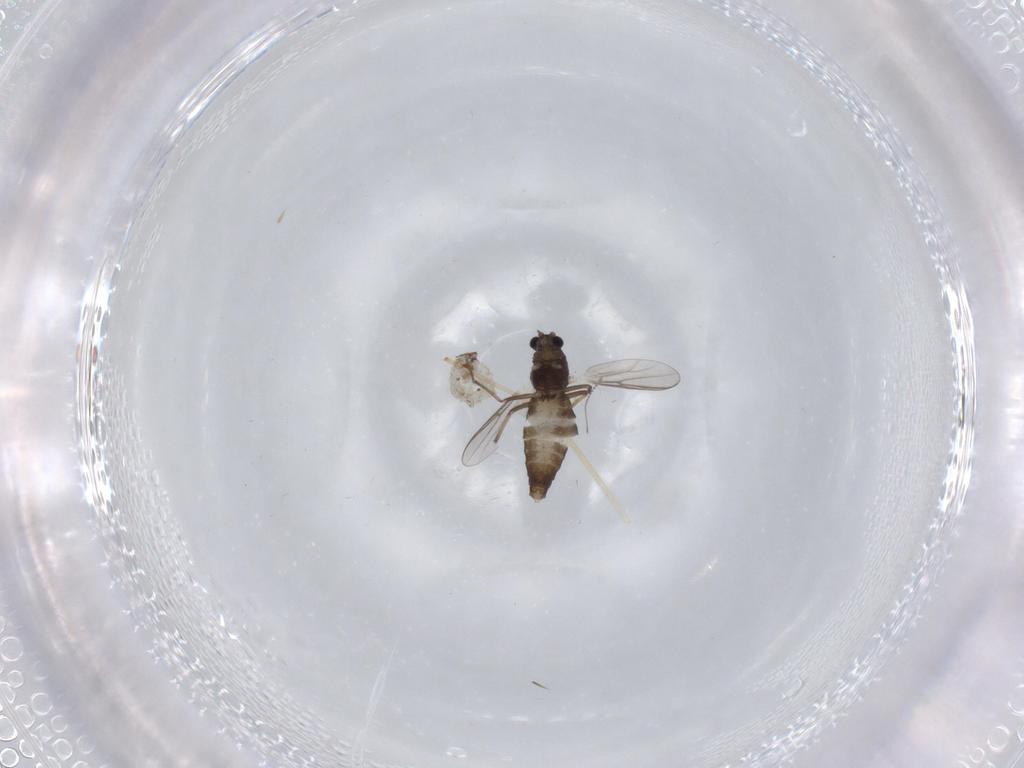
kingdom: Animalia
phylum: Arthropoda
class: Insecta
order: Diptera
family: Chironomidae
